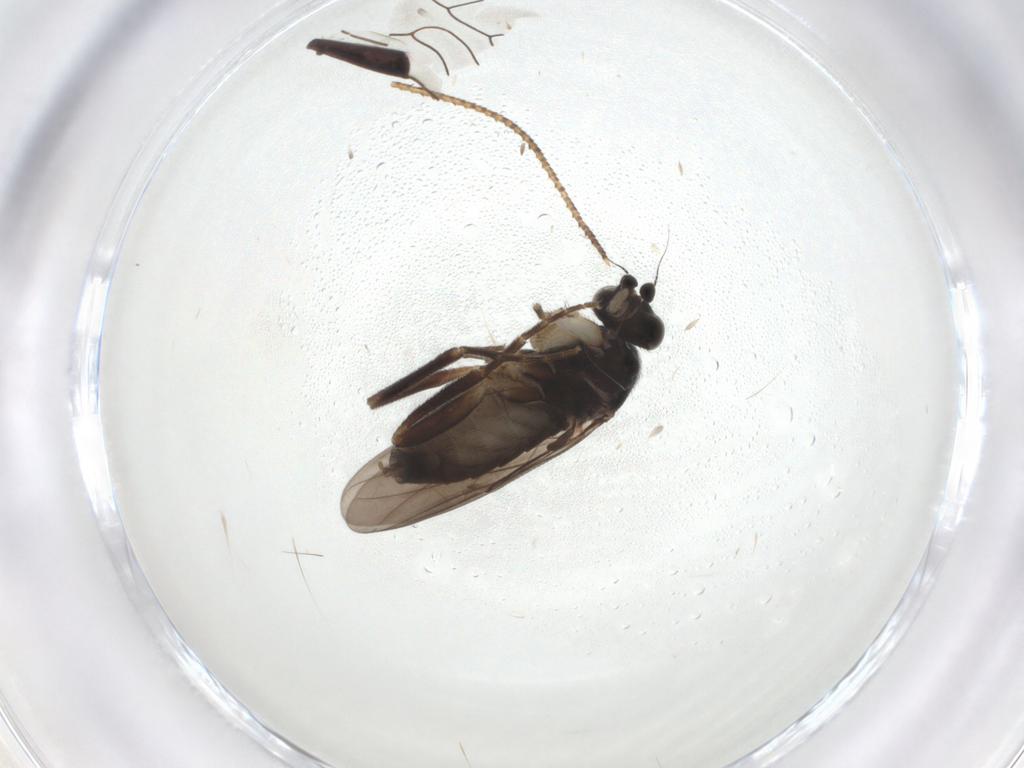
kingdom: Animalia
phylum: Arthropoda
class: Insecta
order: Diptera
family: Phoridae
